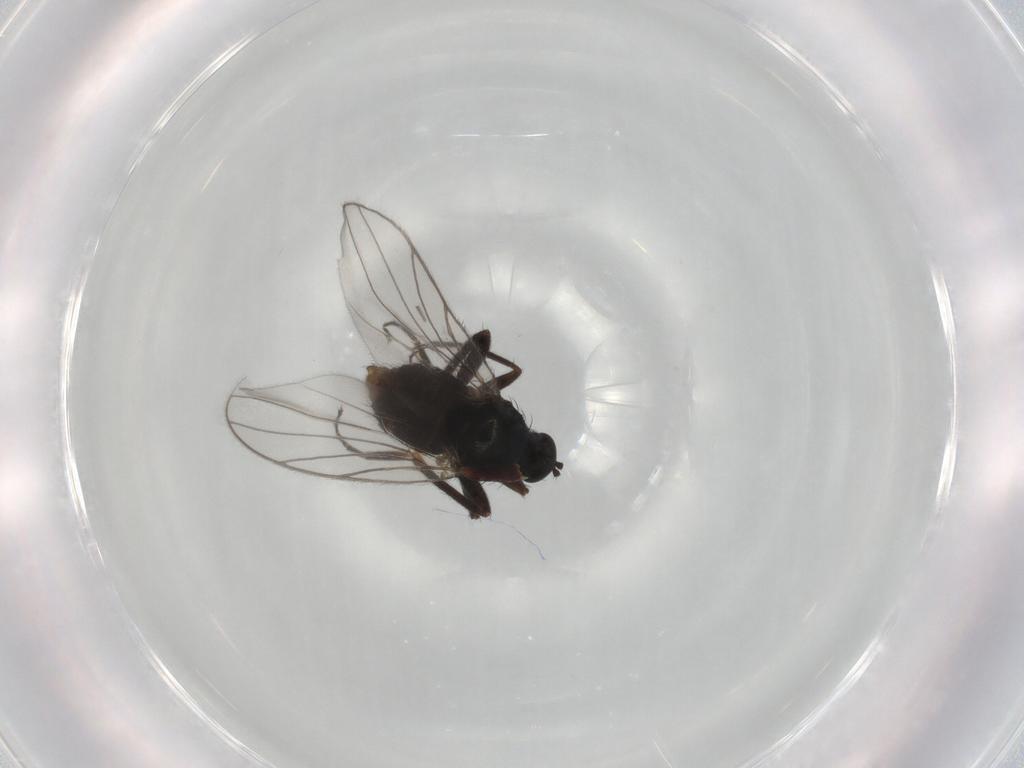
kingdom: Animalia
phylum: Arthropoda
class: Insecta
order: Diptera
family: Hybotidae
